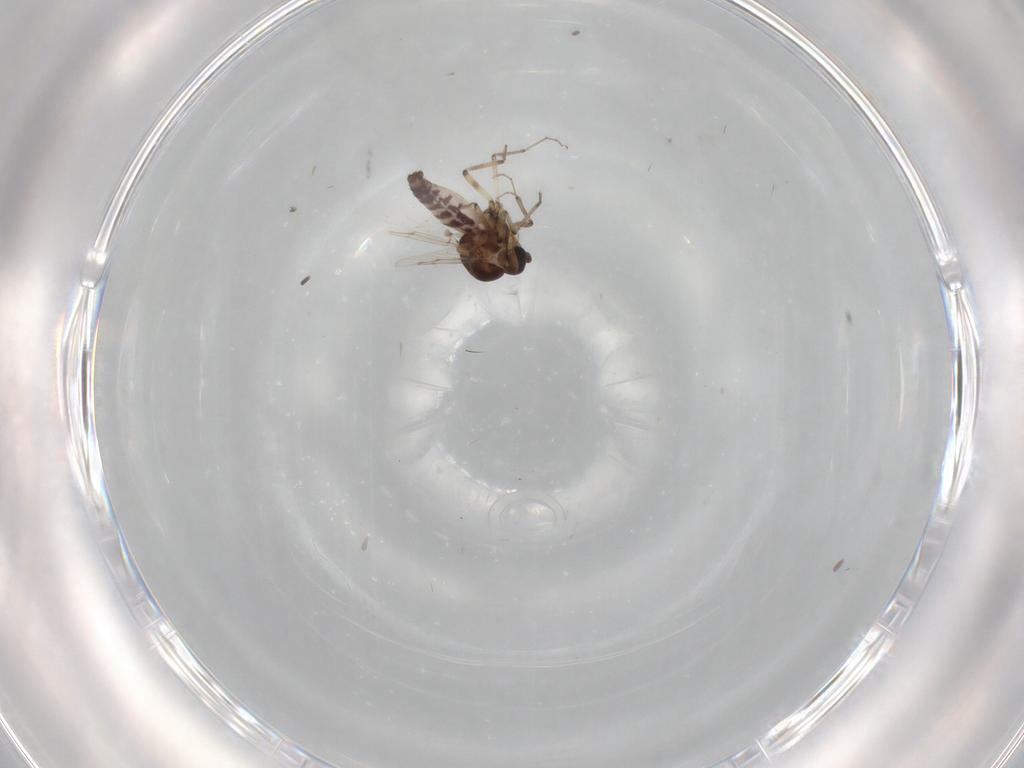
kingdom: Animalia
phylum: Arthropoda
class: Insecta
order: Diptera
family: Ceratopogonidae
